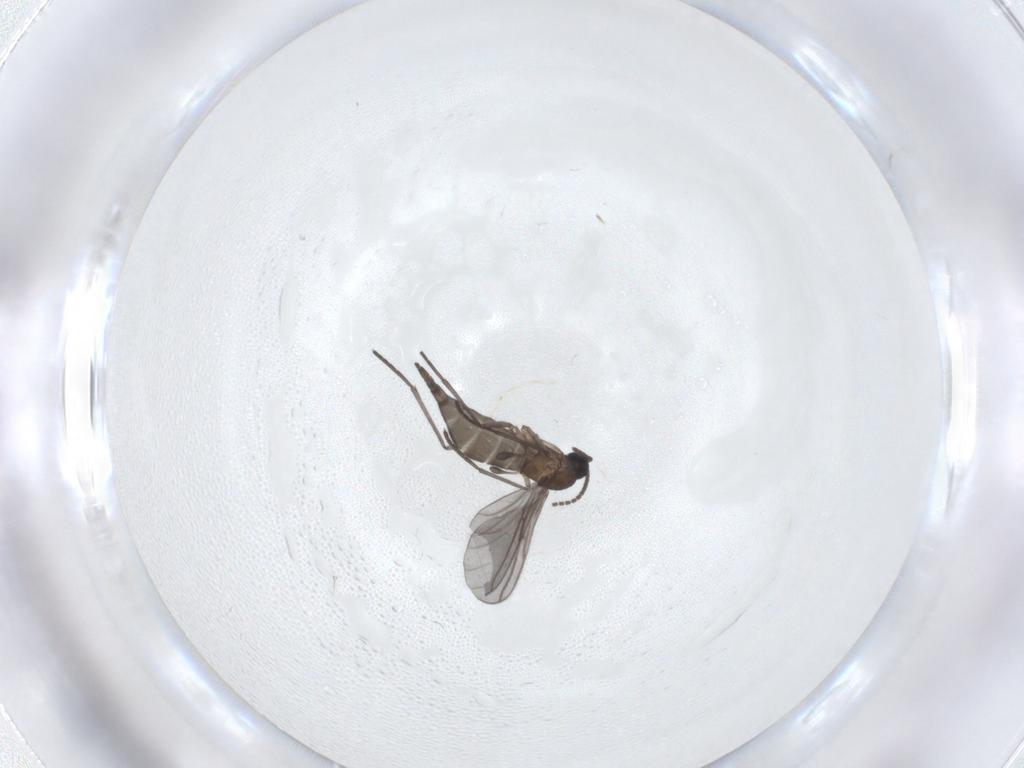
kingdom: Animalia
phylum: Arthropoda
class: Insecta
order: Diptera
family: Sciaridae
